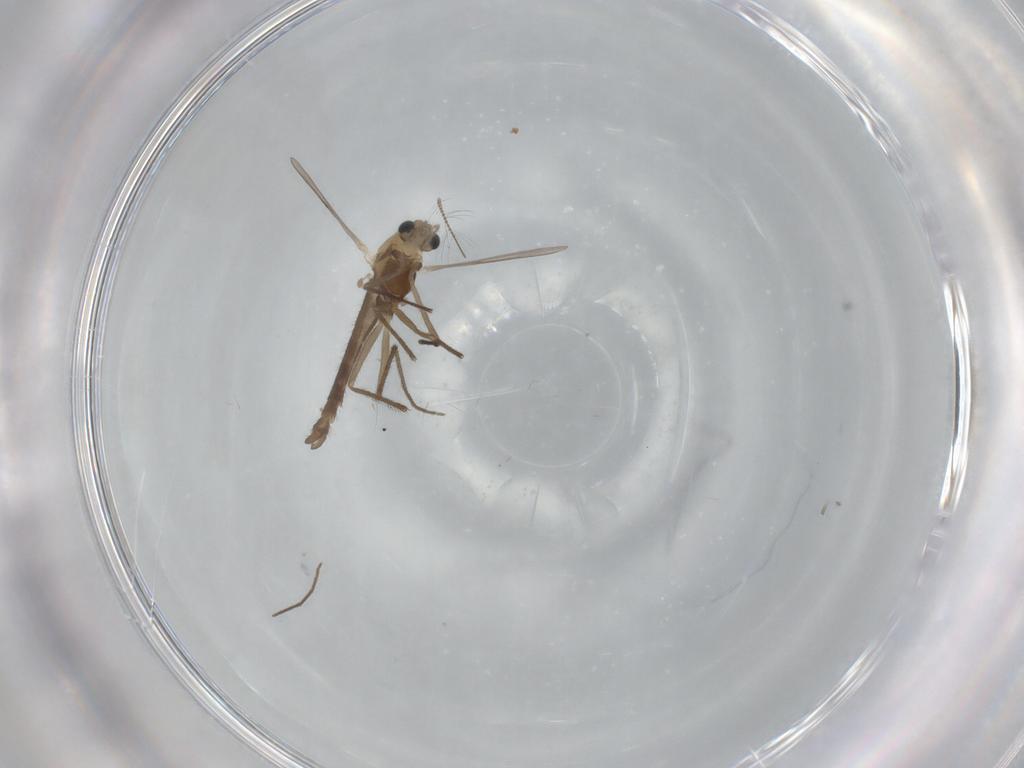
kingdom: Animalia
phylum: Arthropoda
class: Insecta
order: Diptera
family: Chironomidae
